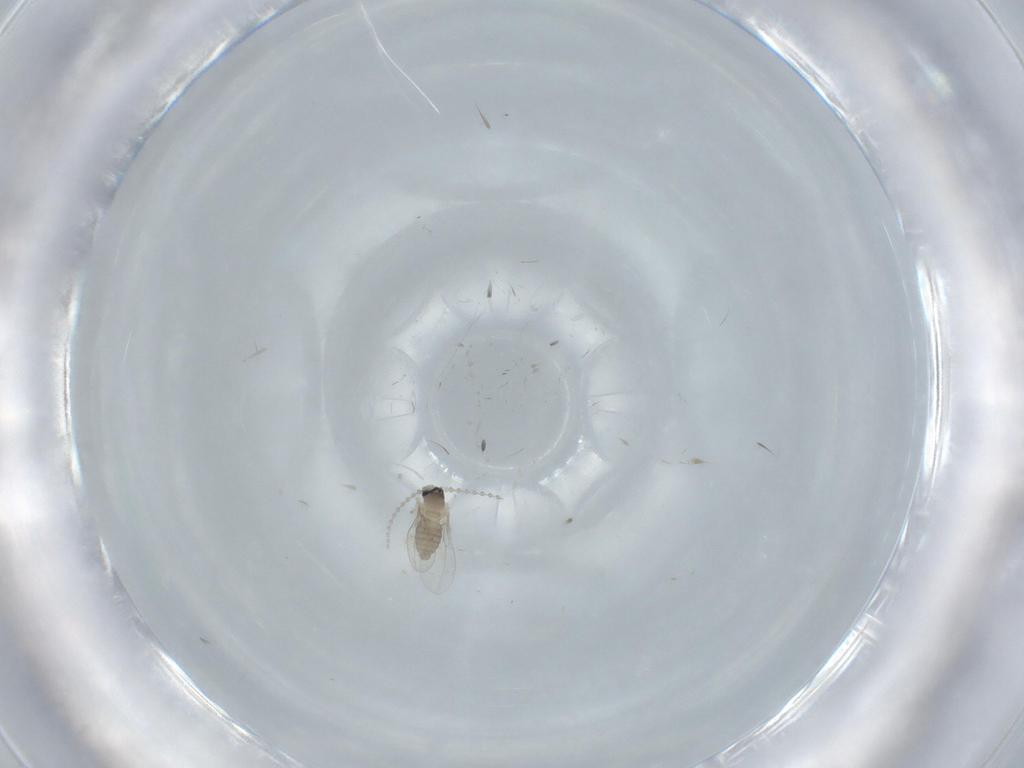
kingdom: Animalia
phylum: Arthropoda
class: Insecta
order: Diptera
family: Cecidomyiidae
